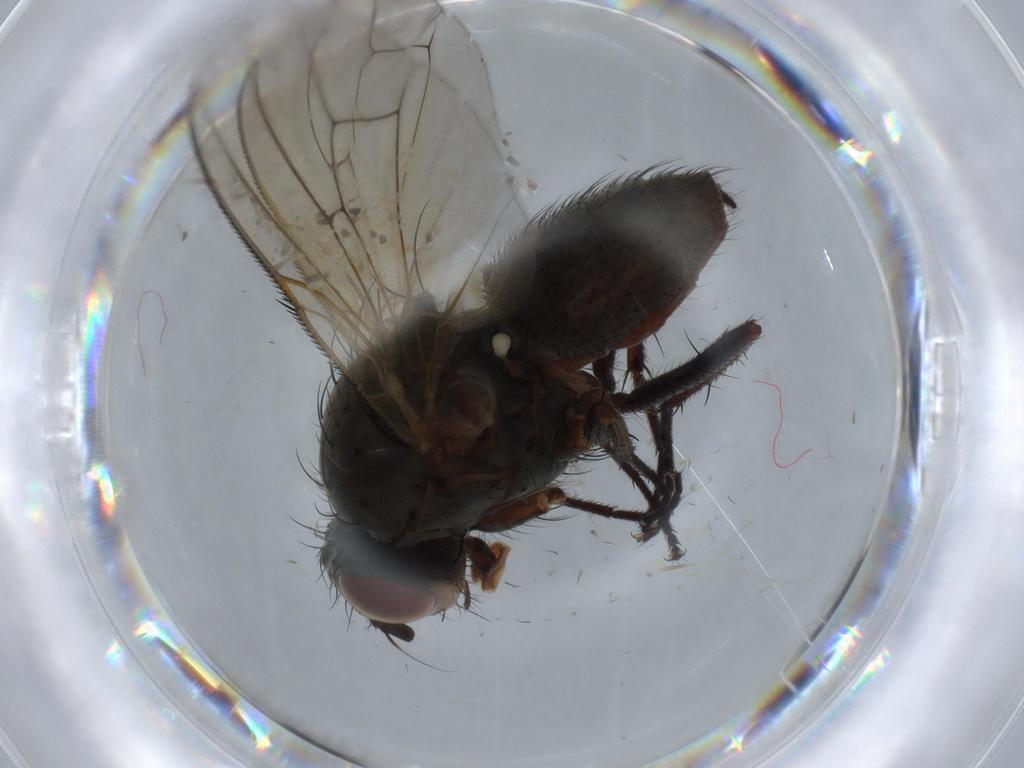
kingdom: Animalia
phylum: Arthropoda
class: Insecta
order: Diptera
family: Anthomyiidae
